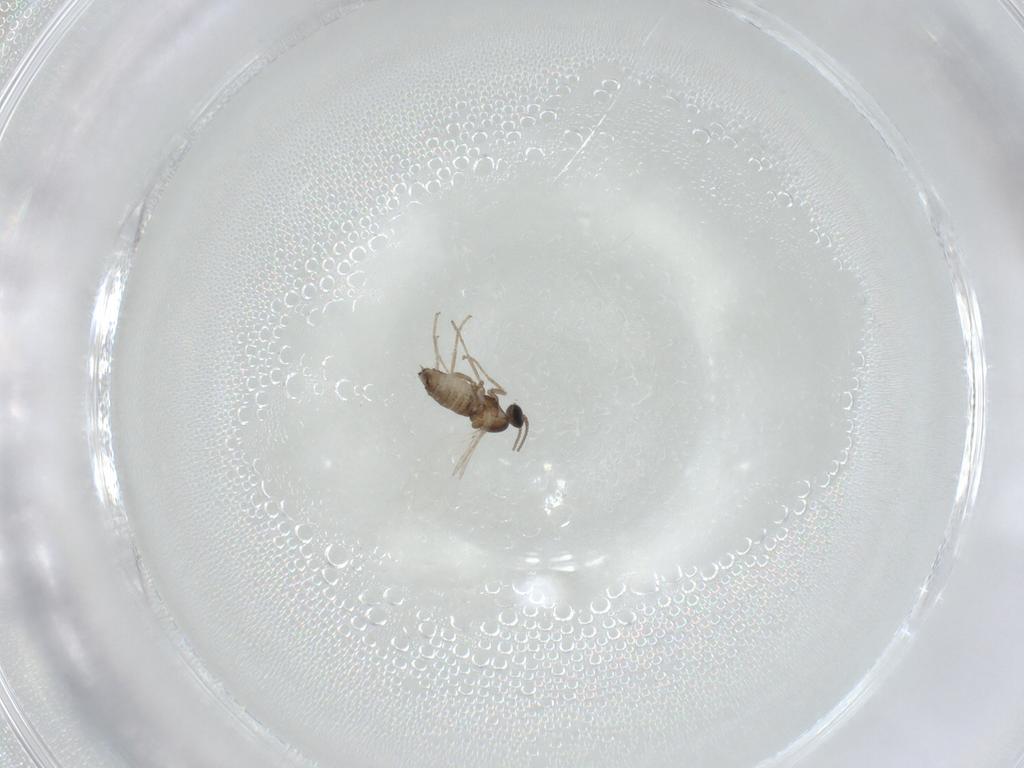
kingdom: Animalia
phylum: Arthropoda
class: Insecta
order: Diptera
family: Cecidomyiidae
